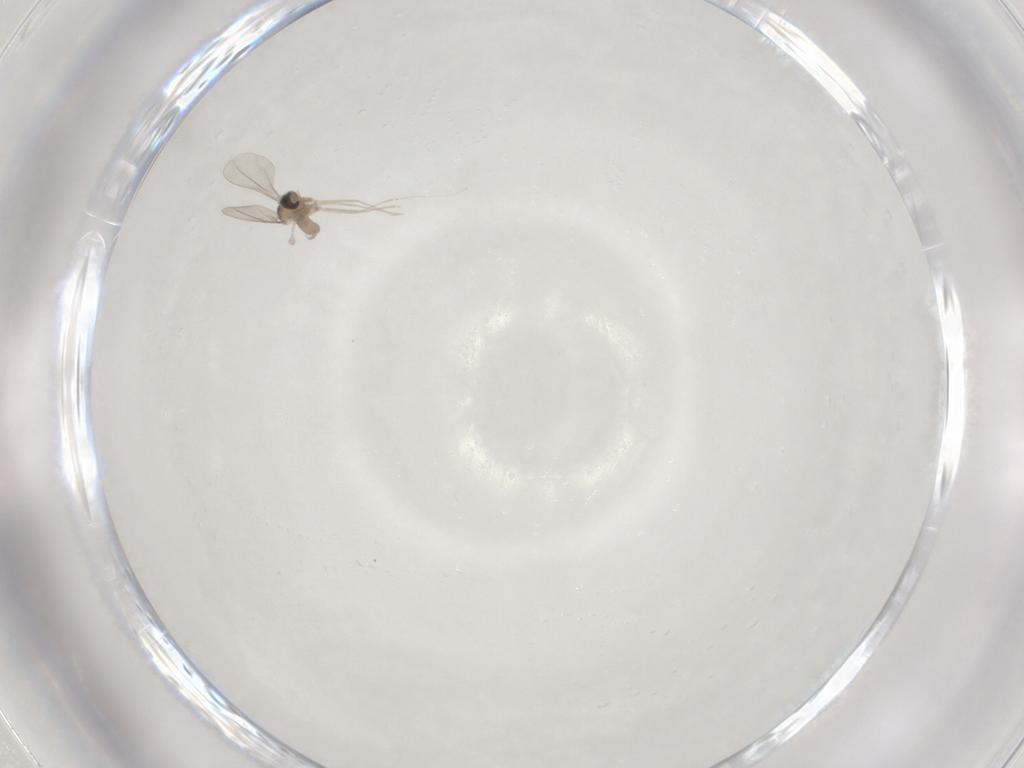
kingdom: Animalia
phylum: Arthropoda
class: Insecta
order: Diptera
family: Cecidomyiidae
